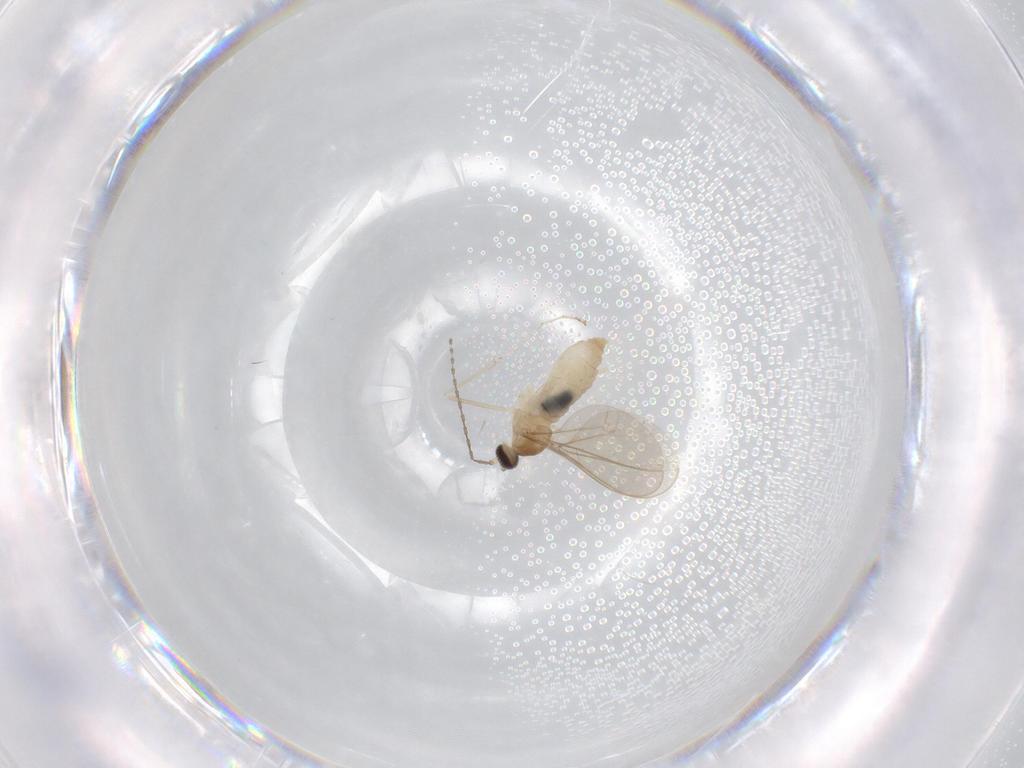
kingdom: Animalia
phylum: Arthropoda
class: Insecta
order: Diptera
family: Cecidomyiidae
